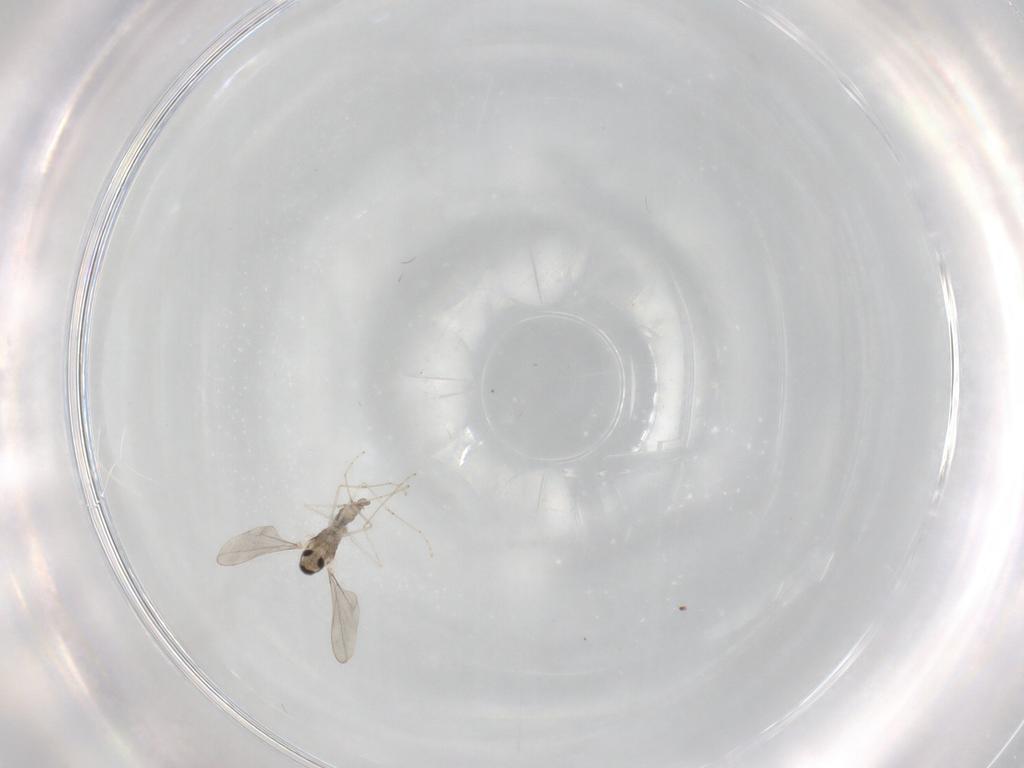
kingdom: Animalia
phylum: Arthropoda
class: Insecta
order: Diptera
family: Cecidomyiidae
